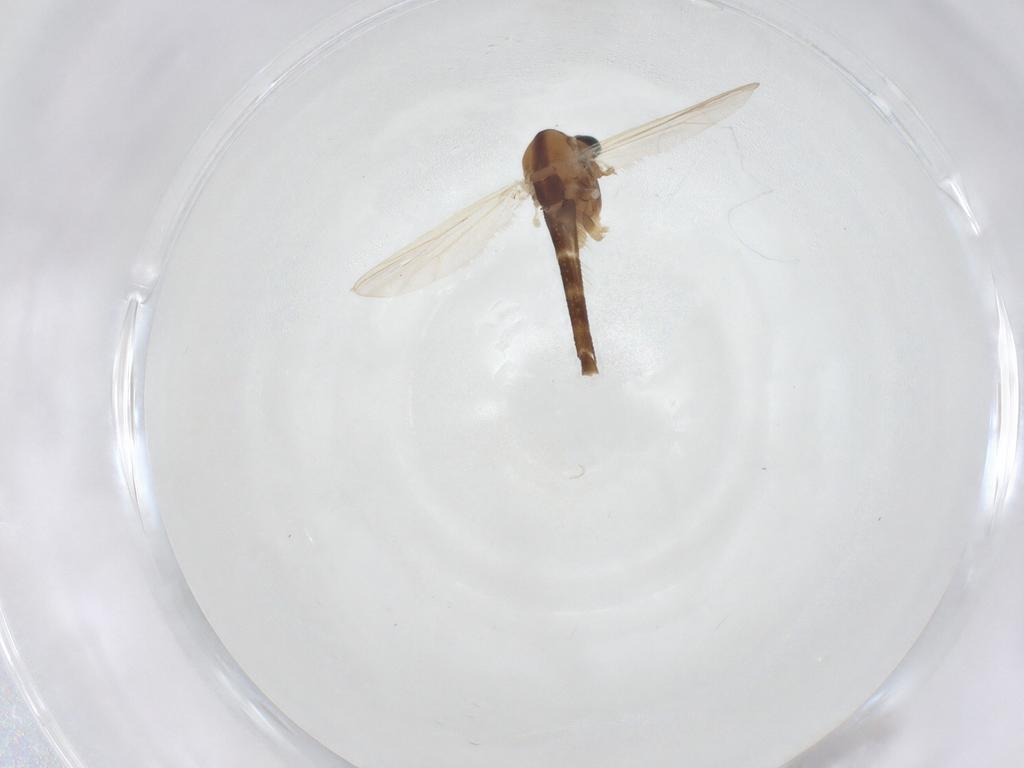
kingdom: Animalia
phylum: Arthropoda
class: Insecta
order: Diptera
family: Chironomidae
